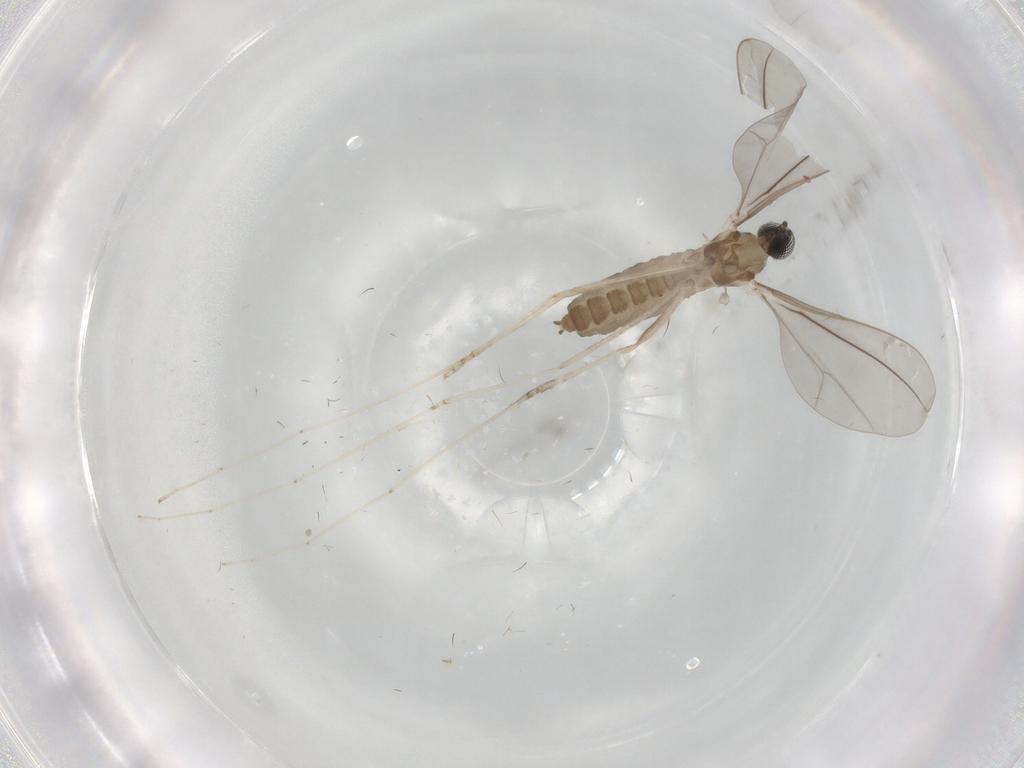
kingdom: Animalia
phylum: Arthropoda
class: Insecta
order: Diptera
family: Cecidomyiidae
